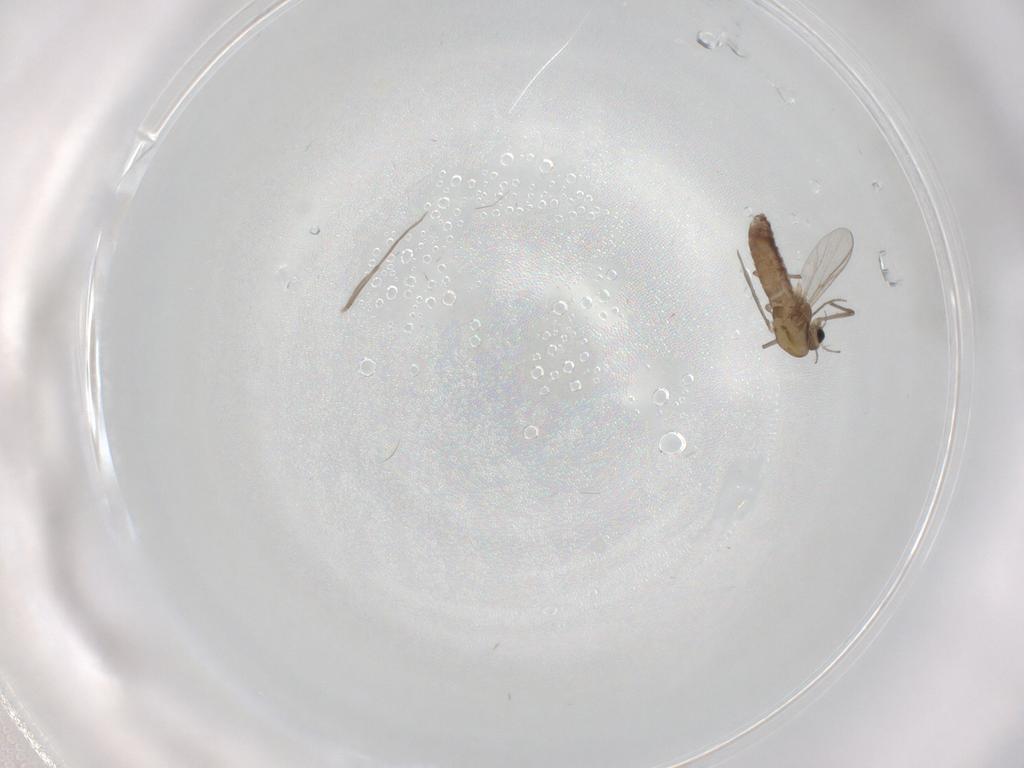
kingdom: Animalia
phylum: Arthropoda
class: Insecta
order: Diptera
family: Chironomidae
